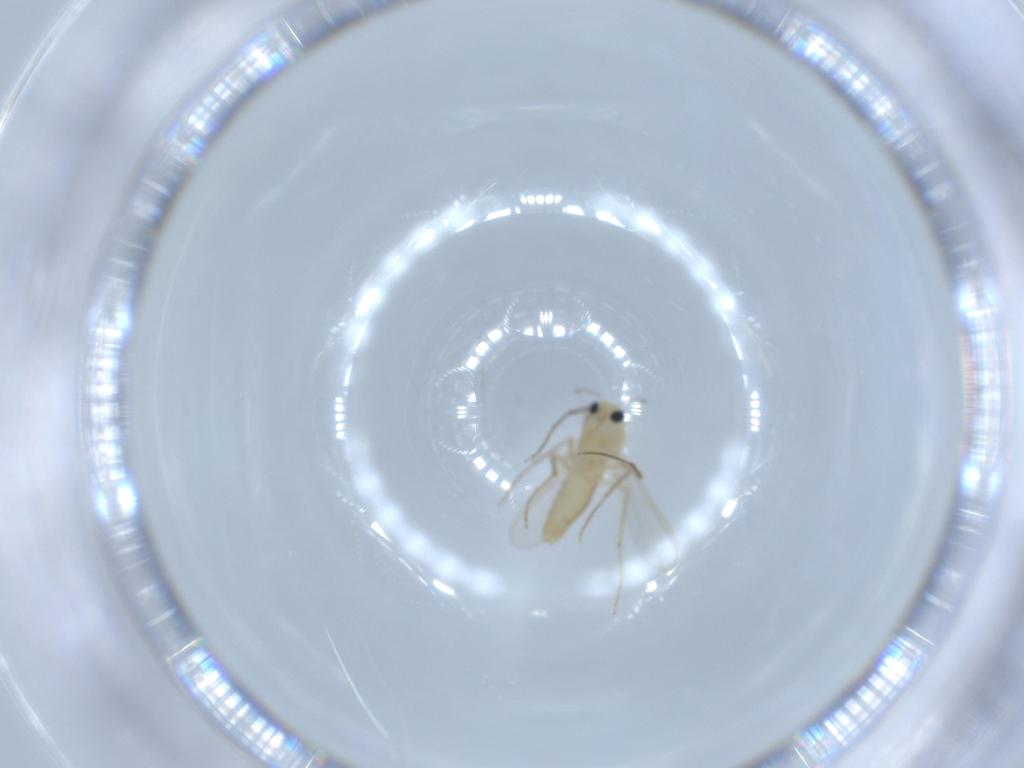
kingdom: Animalia
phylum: Arthropoda
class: Insecta
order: Diptera
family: Chironomidae
